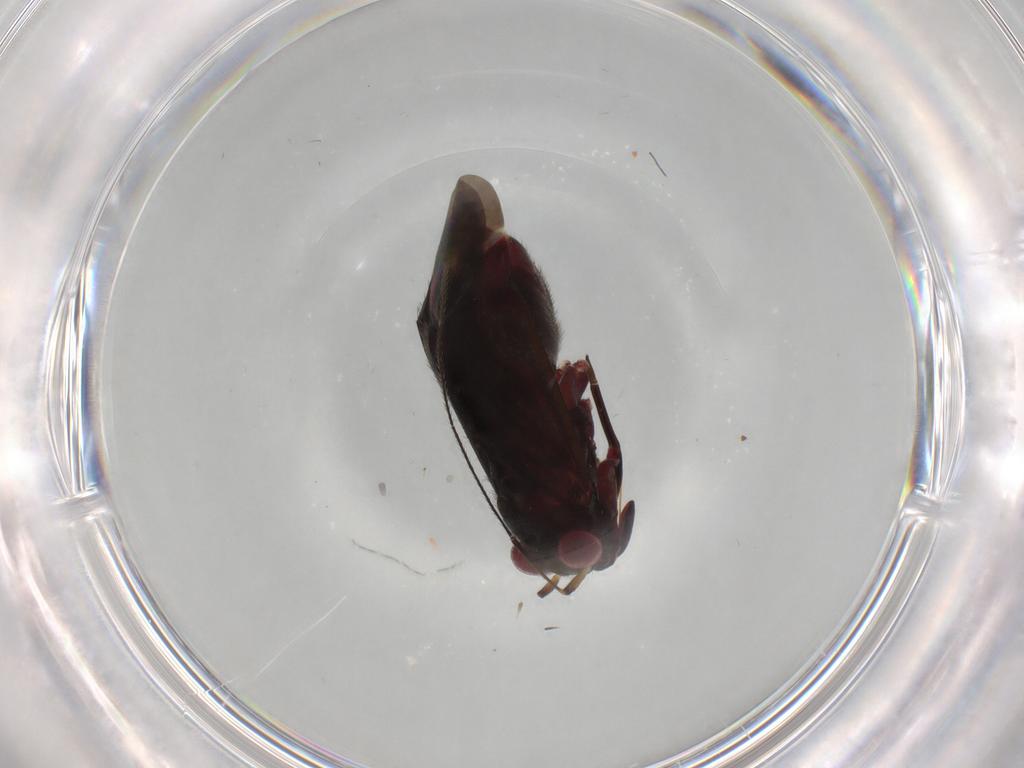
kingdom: Animalia
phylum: Arthropoda
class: Insecta
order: Hemiptera
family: Miridae
